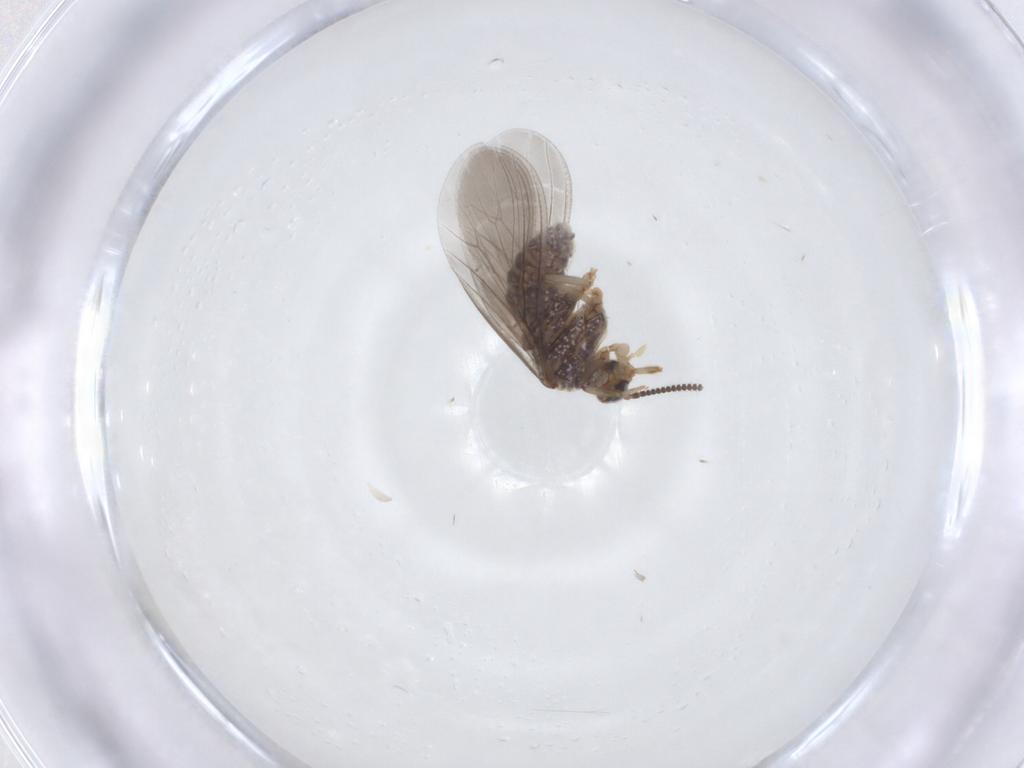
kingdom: Animalia
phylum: Arthropoda
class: Insecta
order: Neuroptera
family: Coniopterygidae
